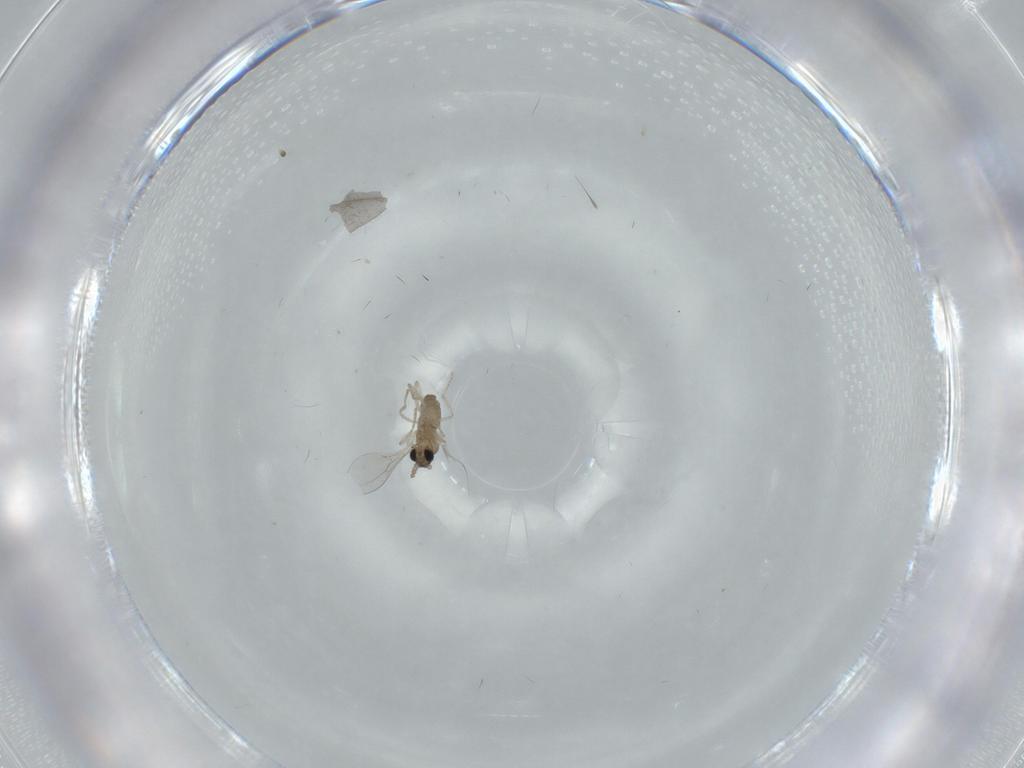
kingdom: Animalia
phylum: Arthropoda
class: Insecta
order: Diptera
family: Cecidomyiidae
